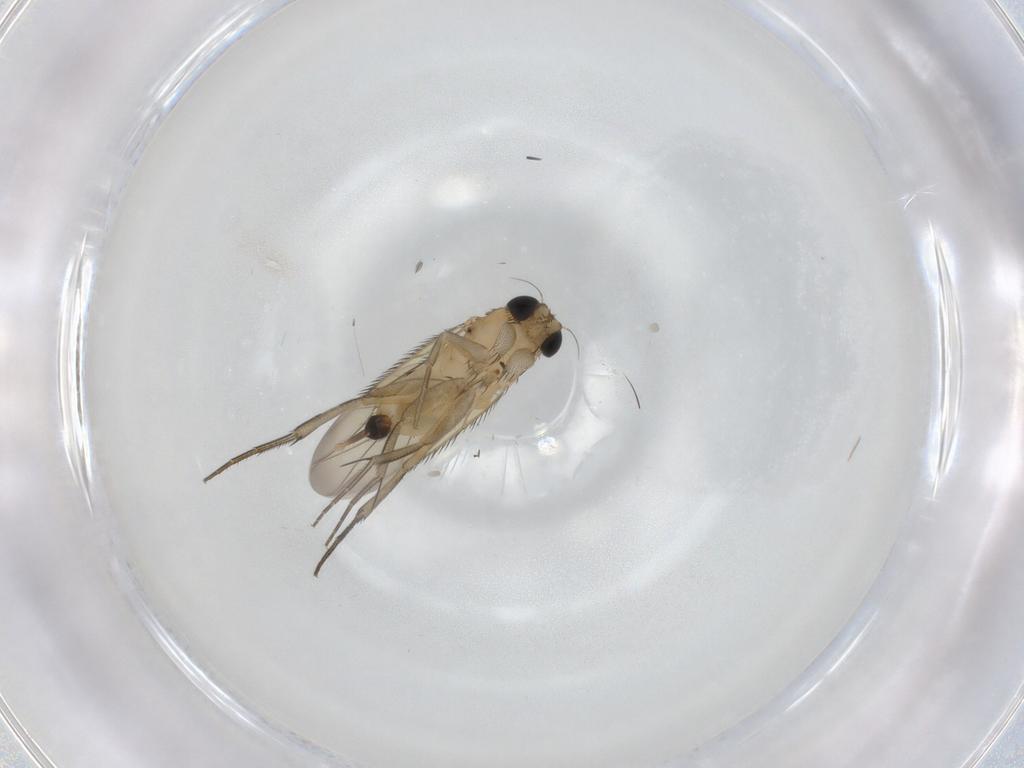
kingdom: Animalia
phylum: Arthropoda
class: Insecta
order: Diptera
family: Phoridae
